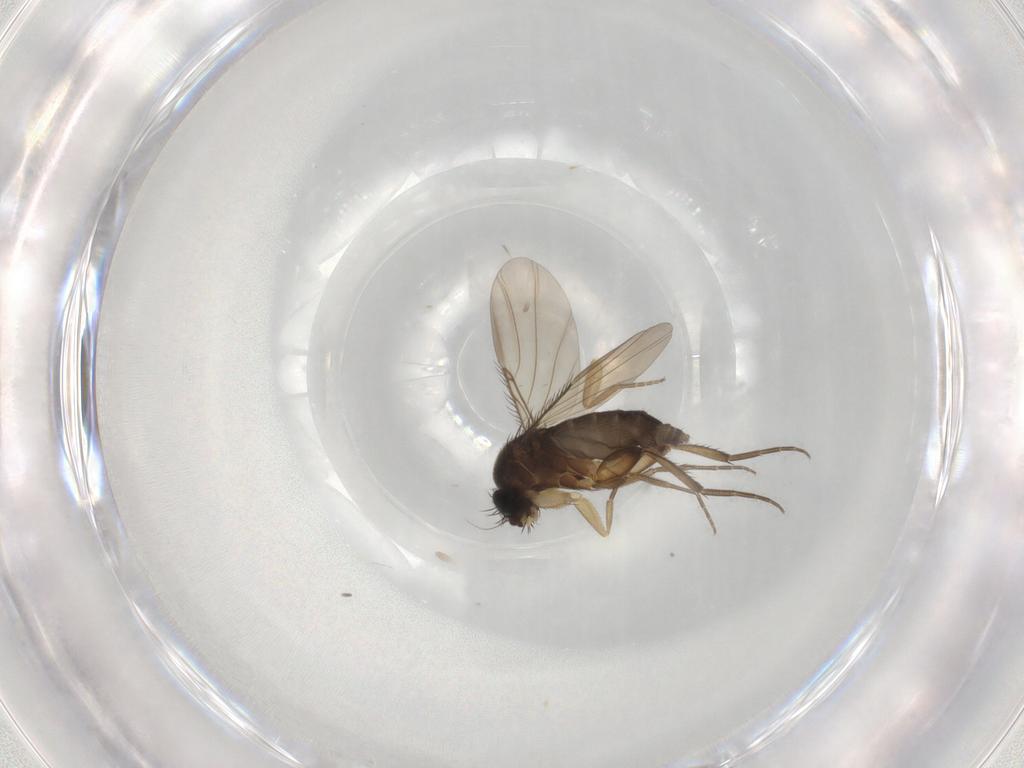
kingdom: Animalia
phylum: Arthropoda
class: Insecta
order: Diptera
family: Phoridae
